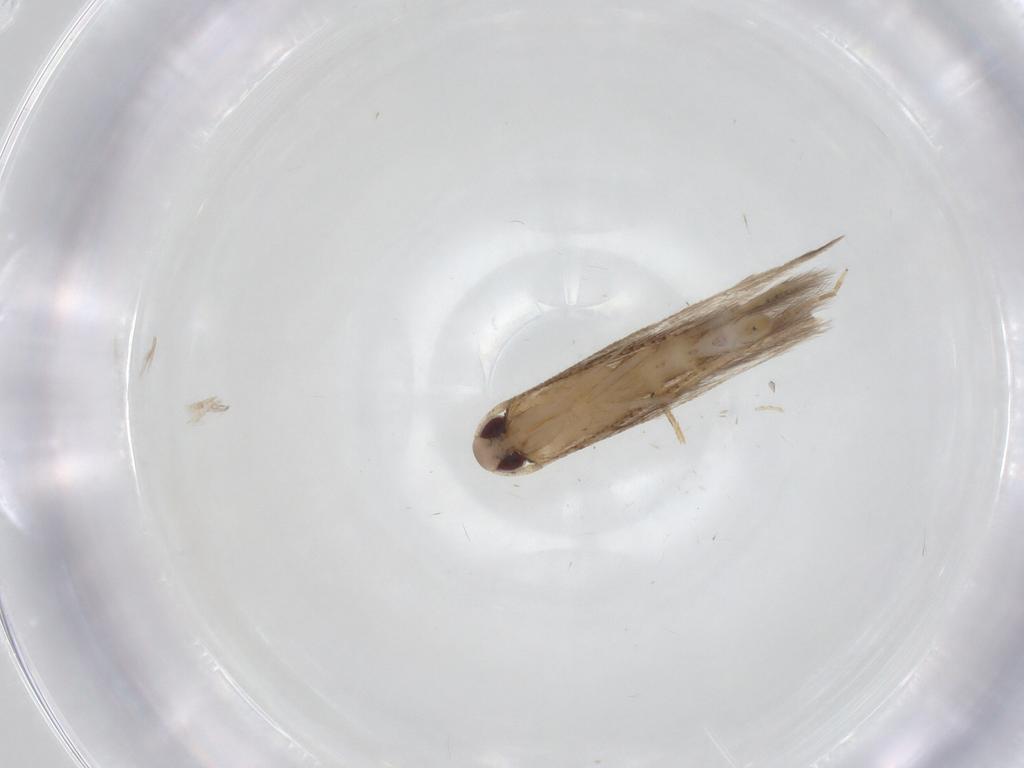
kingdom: Animalia
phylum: Arthropoda
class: Insecta
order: Lepidoptera
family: Cosmopterigidae
